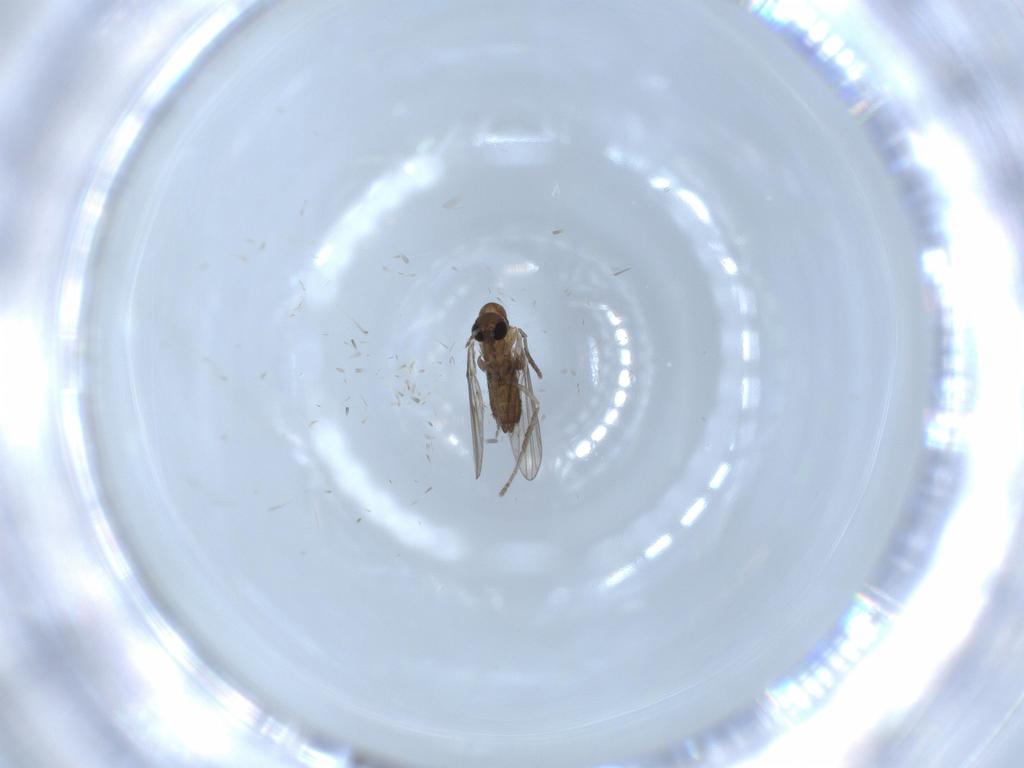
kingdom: Animalia
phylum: Arthropoda
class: Insecta
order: Diptera
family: Psychodidae
